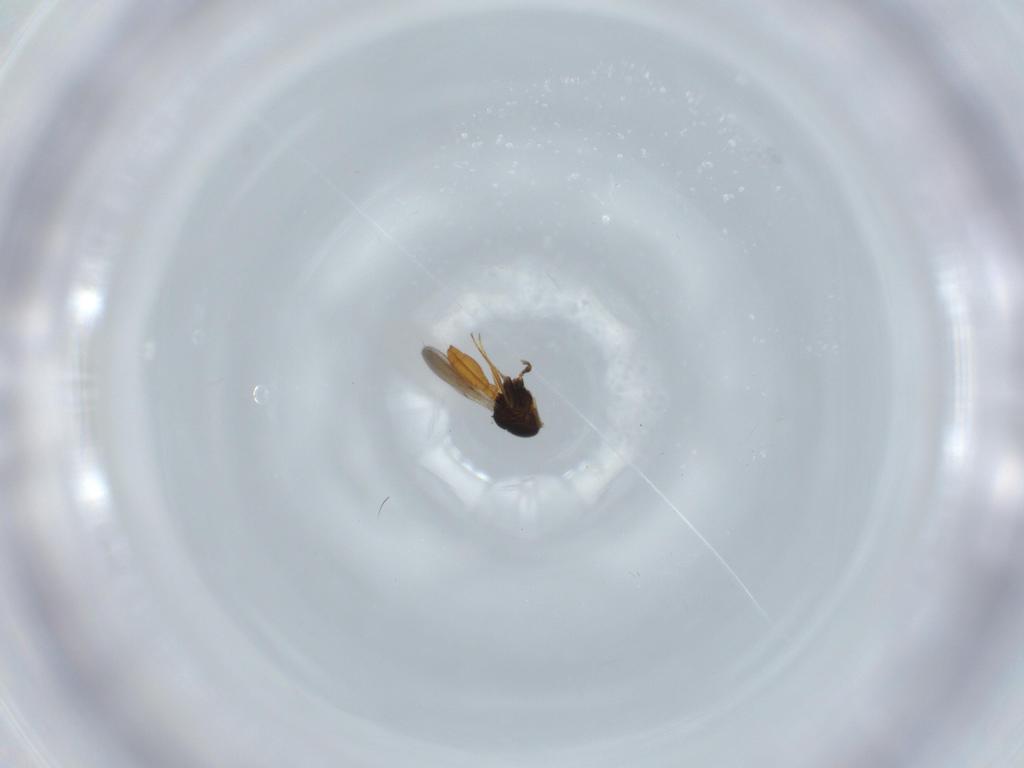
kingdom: Animalia
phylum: Arthropoda
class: Insecta
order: Hymenoptera
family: Scelionidae
